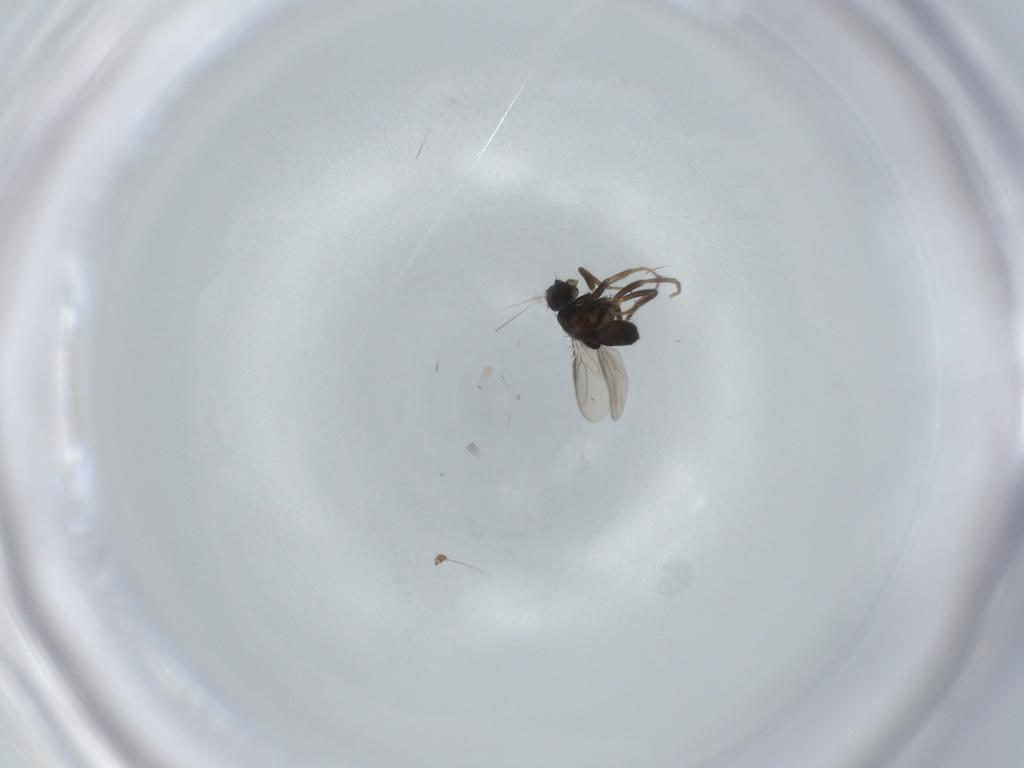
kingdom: Animalia
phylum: Arthropoda
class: Insecta
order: Diptera
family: Sphaeroceridae
